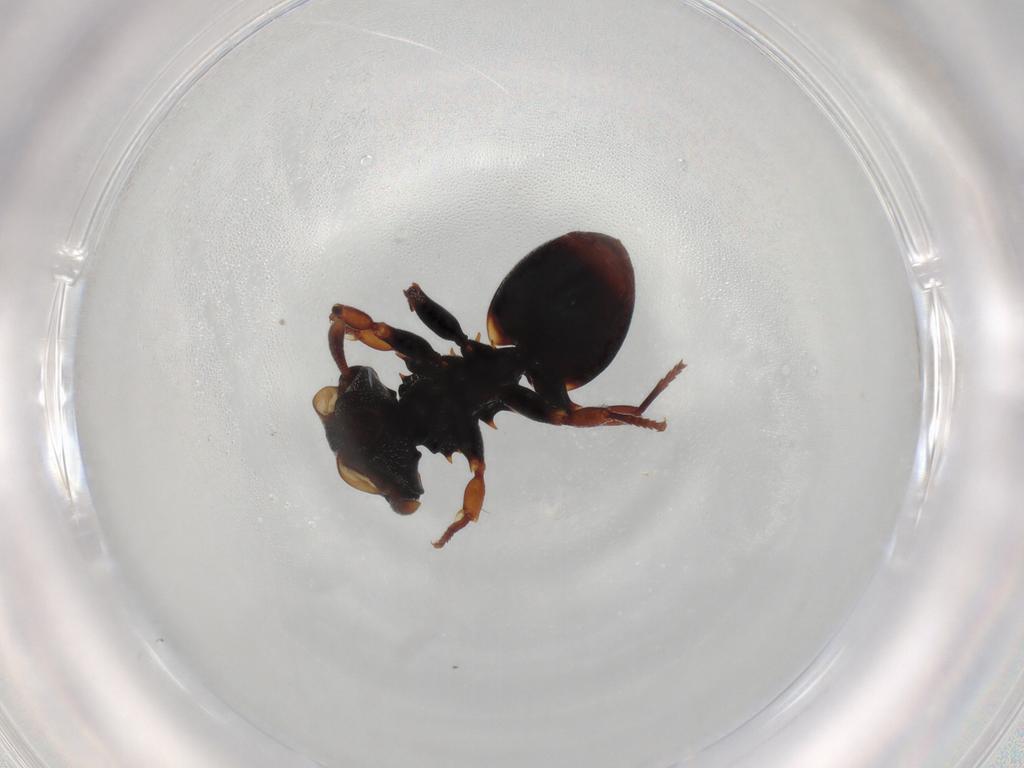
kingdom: Animalia
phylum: Arthropoda
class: Insecta
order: Hymenoptera
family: Formicidae
